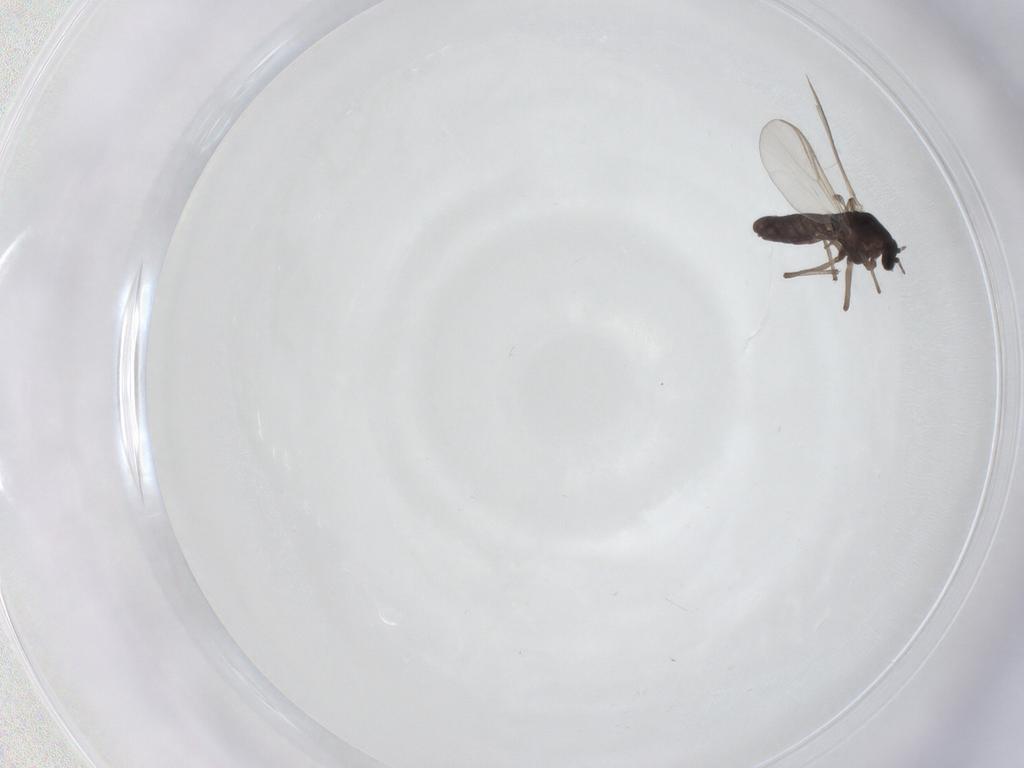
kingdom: Animalia
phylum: Arthropoda
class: Insecta
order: Diptera
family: Chironomidae
